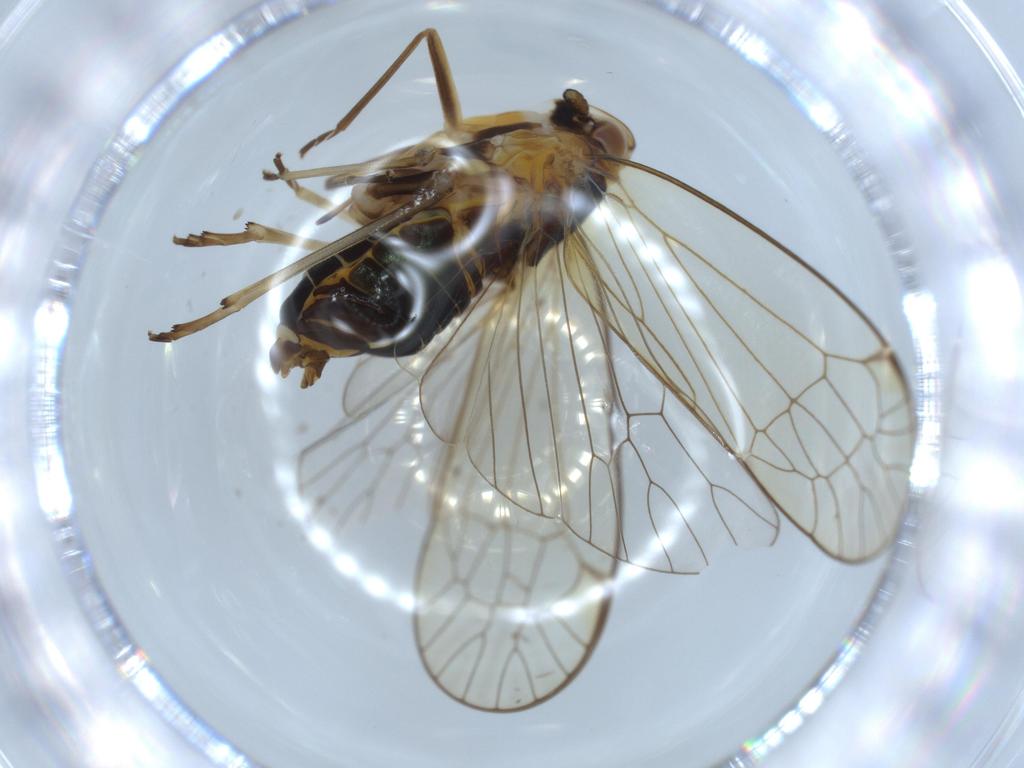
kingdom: Animalia
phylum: Arthropoda
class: Insecta
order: Hemiptera
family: Kinnaridae
